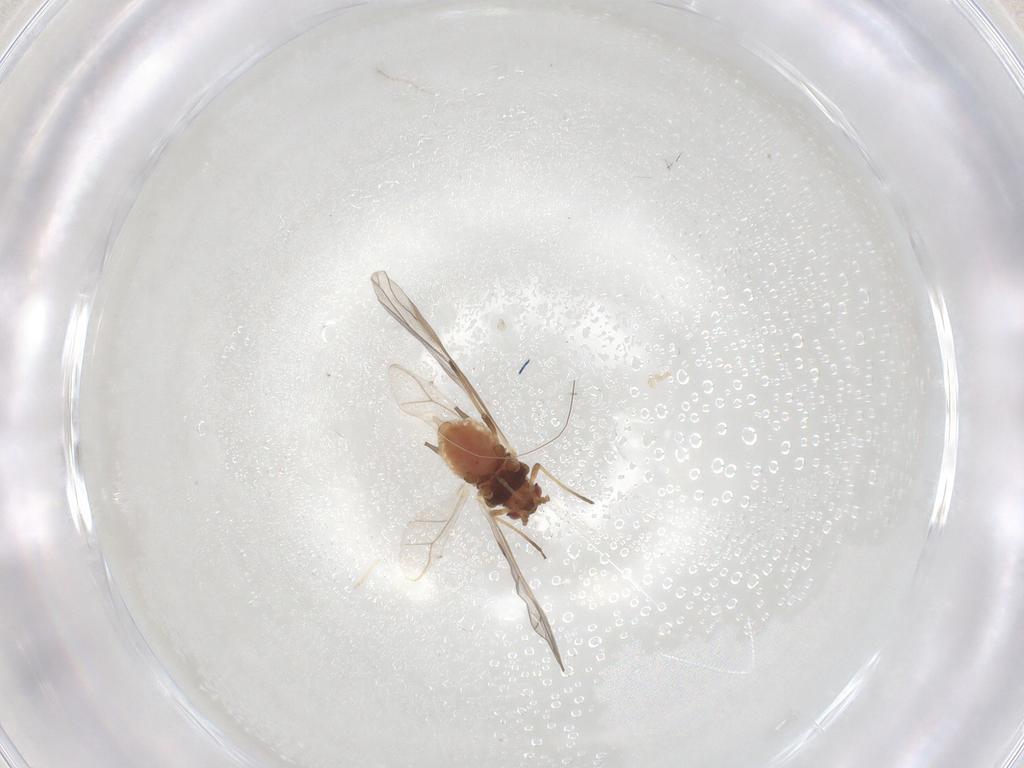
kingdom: Animalia
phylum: Arthropoda
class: Insecta
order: Hemiptera
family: Aphididae
